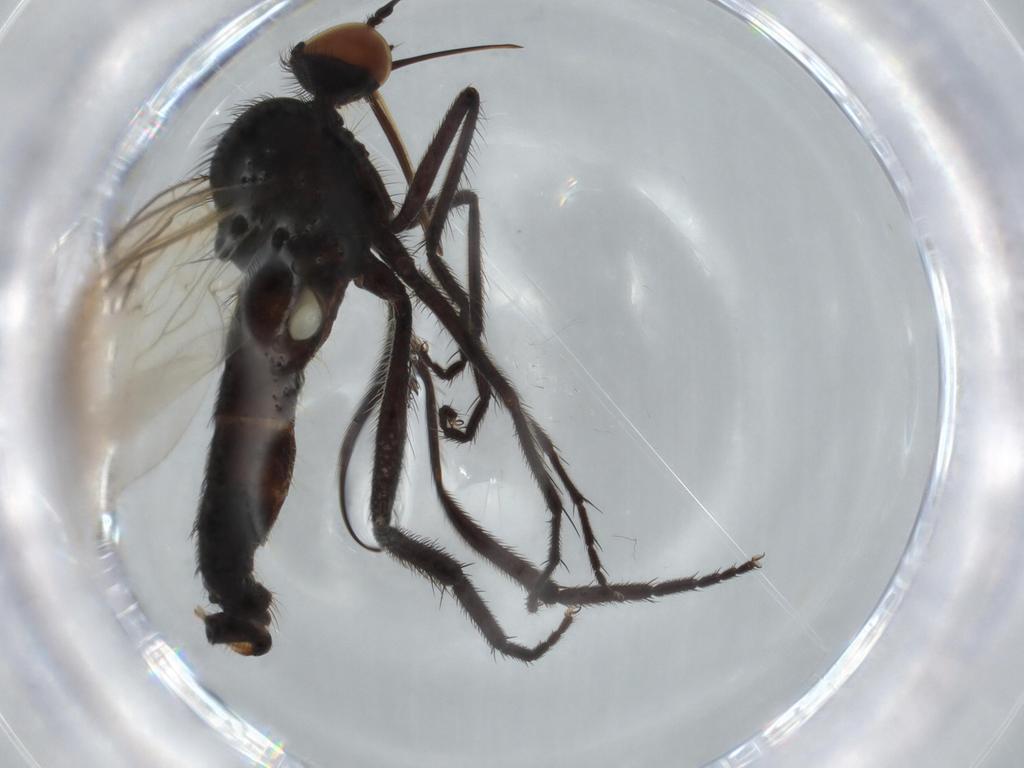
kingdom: Animalia
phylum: Arthropoda
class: Insecta
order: Diptera
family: Empididae
